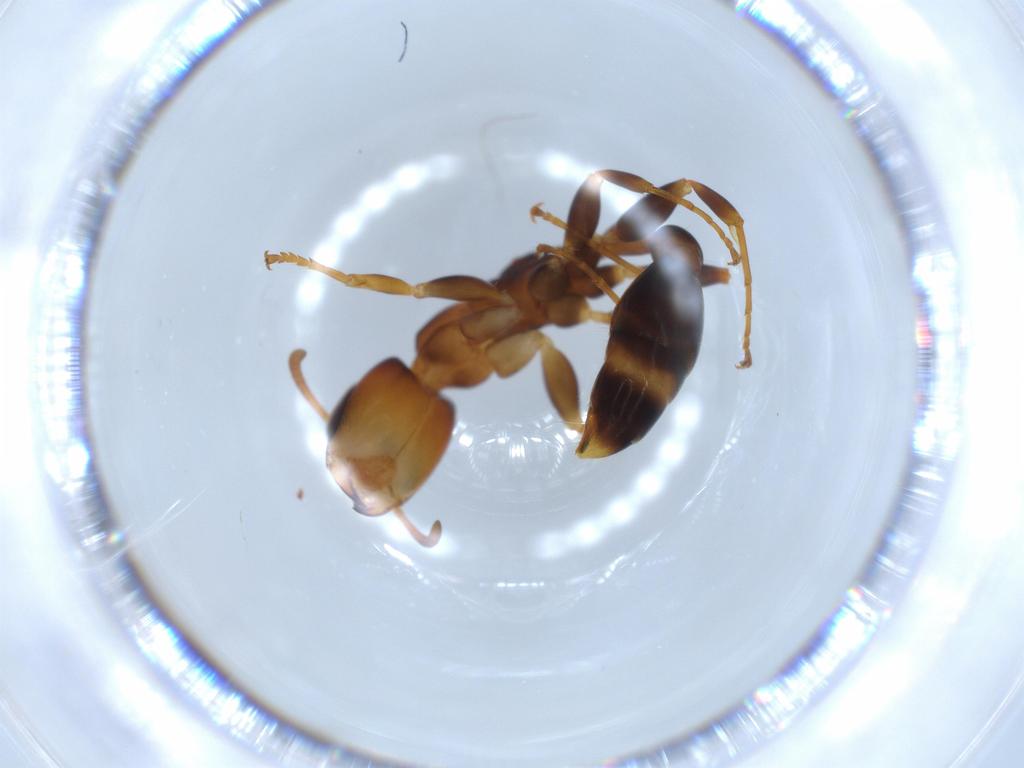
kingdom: Animalia
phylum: Arthropoda
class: Insecta
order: Hymenoptera
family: Formicidae
